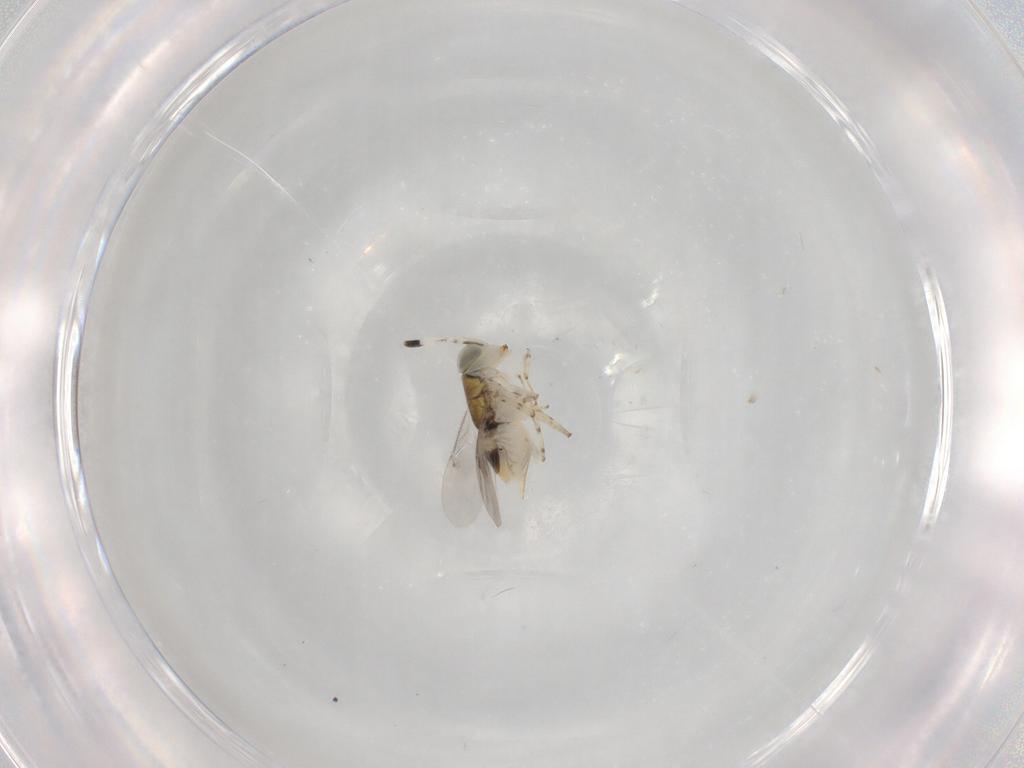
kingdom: Animalia
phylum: Arthropoda
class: Insecta
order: Hymenoptera
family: Encyrtidae
